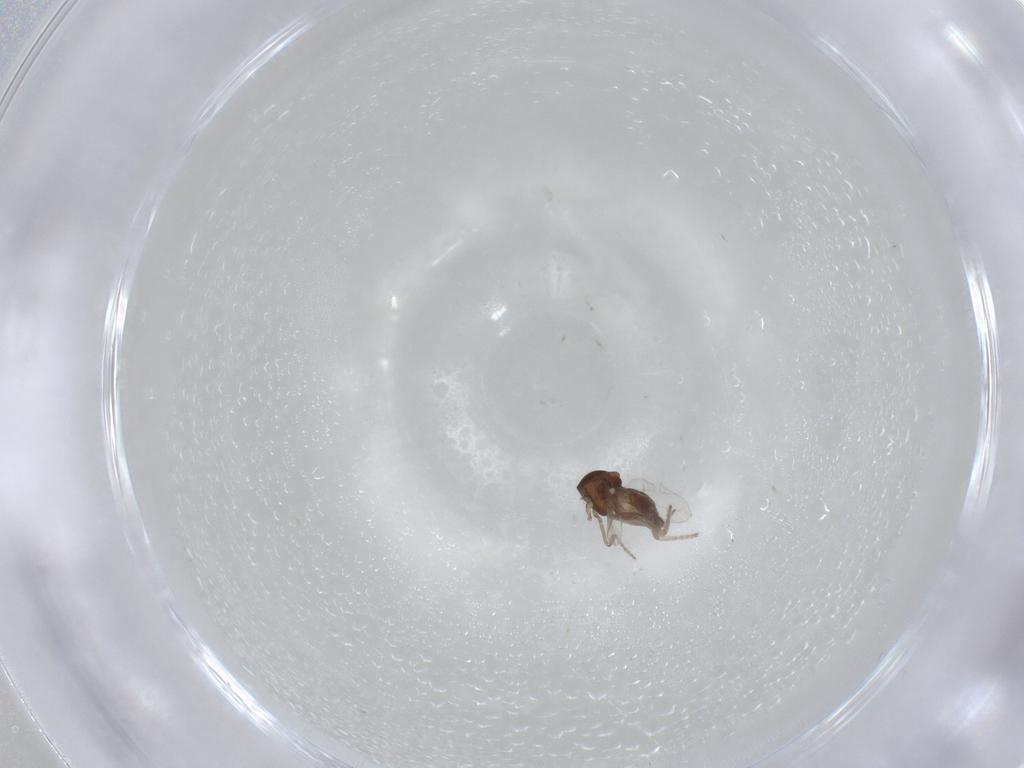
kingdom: Animalia
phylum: Arthropoda
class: Insecta
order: Diptera
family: Ceratopogonidae
